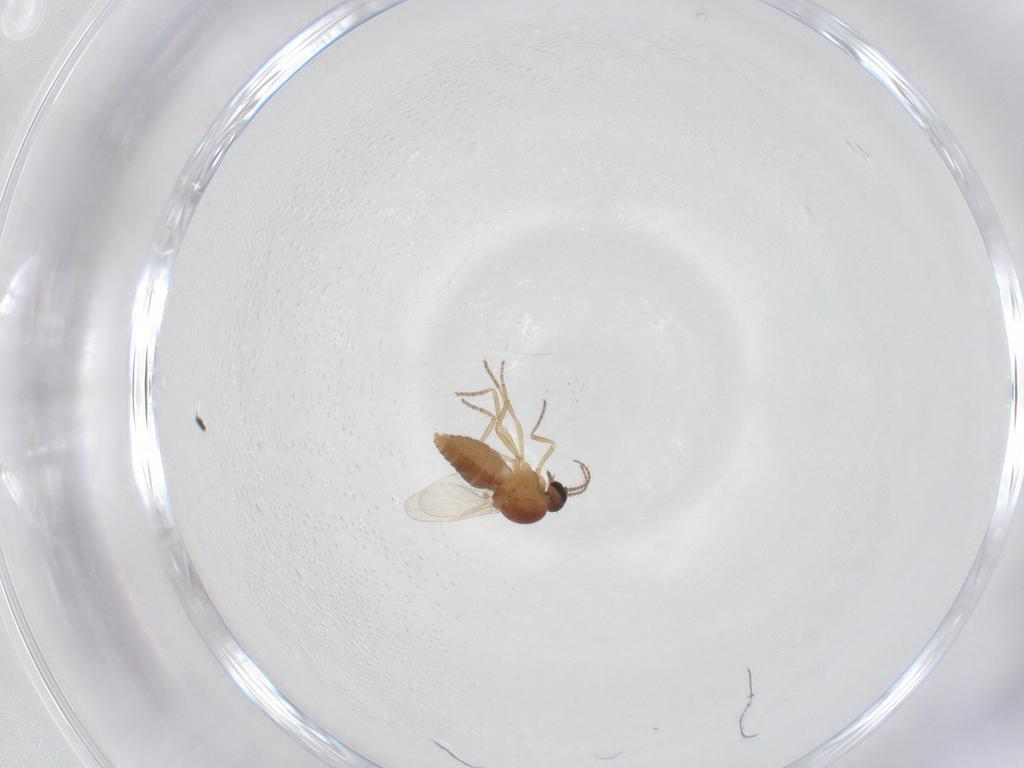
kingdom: Animalia
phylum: Arthropoda
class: Insecta
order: Diptera
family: Ceratopogonidae
